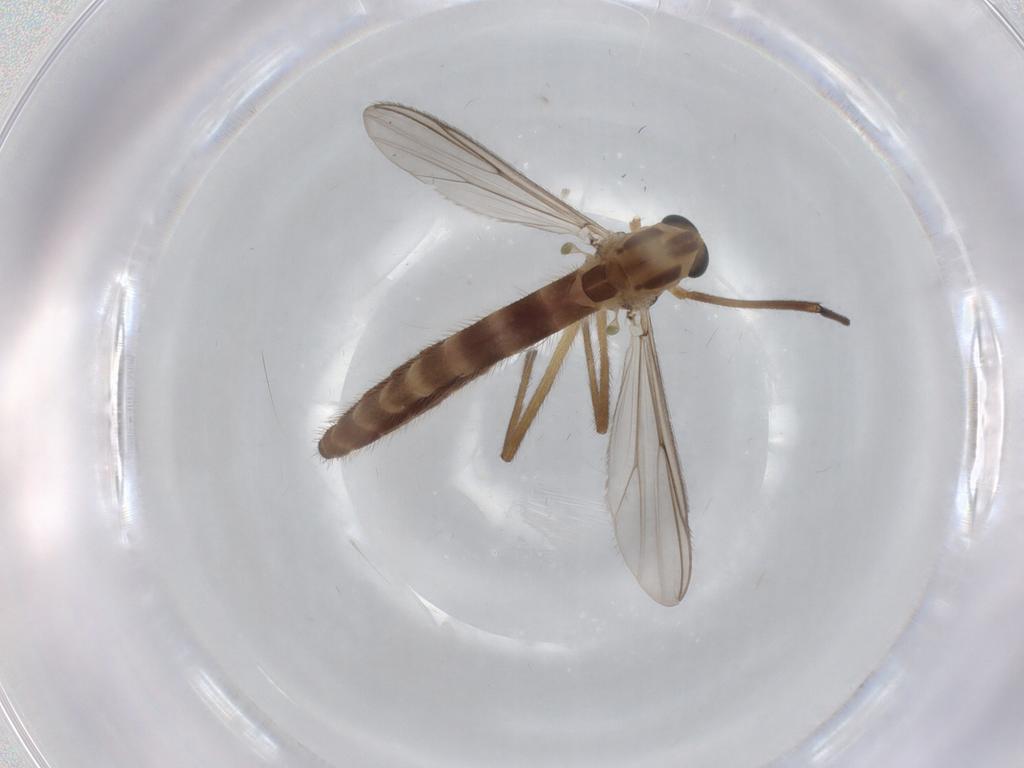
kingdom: Animalia
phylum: Arthropoda
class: Insecta
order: Diptera
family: Chironomidae
